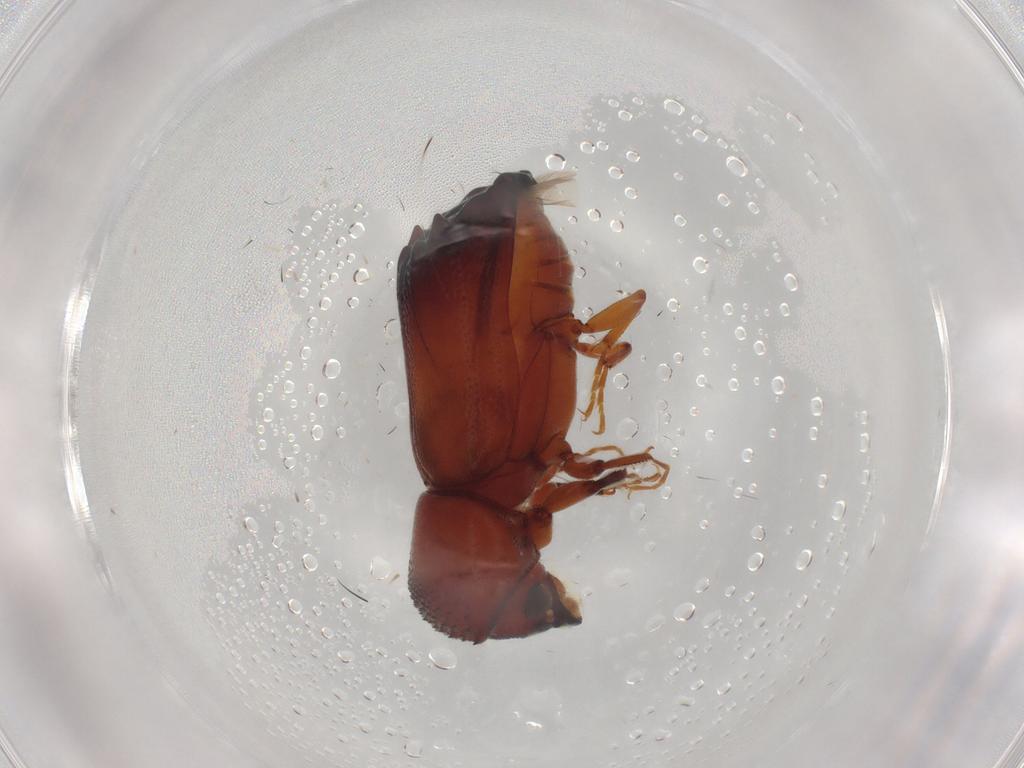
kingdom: Animalia
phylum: Arthropoda
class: Insecta
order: Coleoptera
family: Bostrichidae
